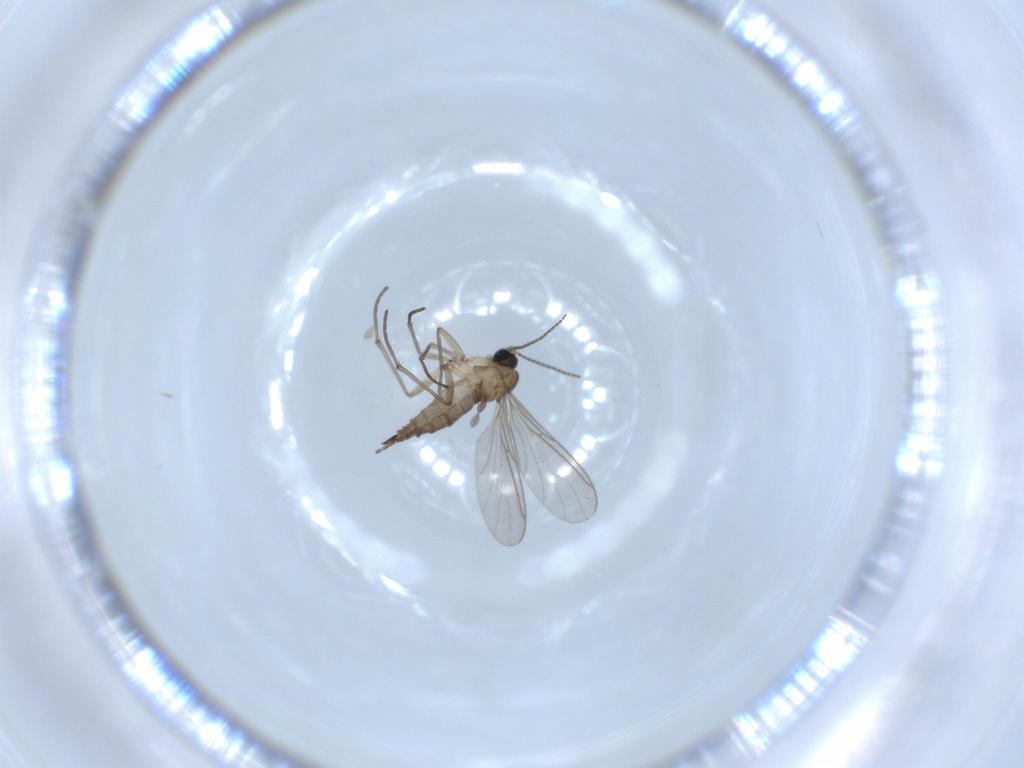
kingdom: Animalia
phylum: Arthropoda
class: Insecta
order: Diptera
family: Sciaridae
